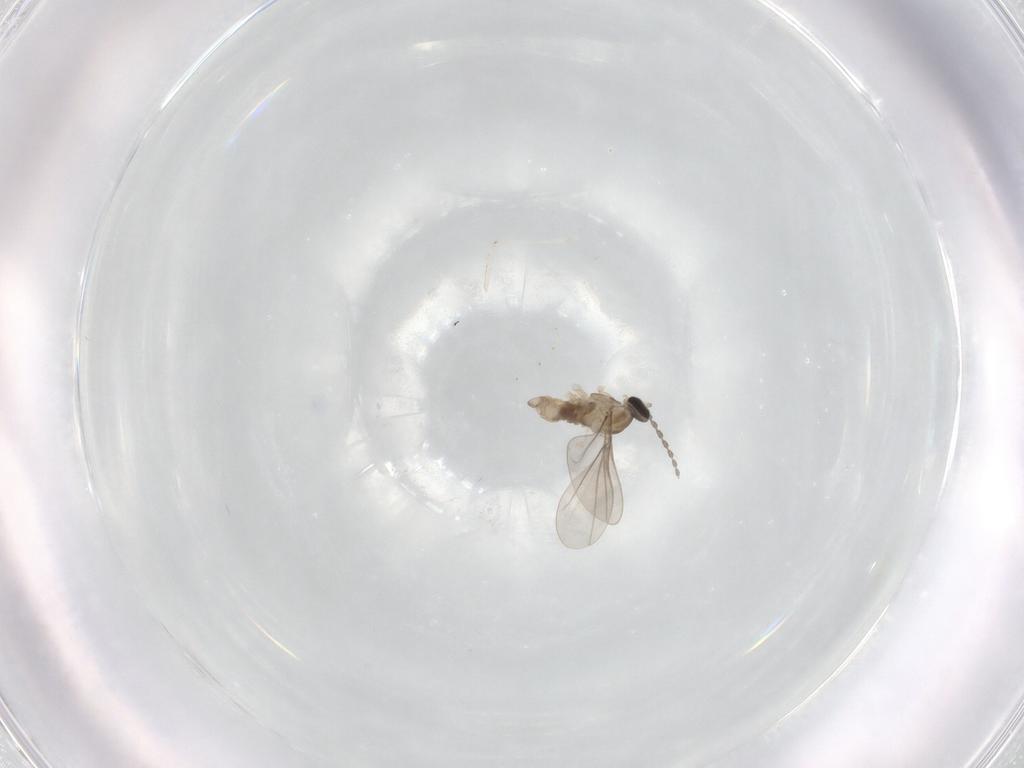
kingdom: Animalia
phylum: Arthropoda
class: Insecta
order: Diptera
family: Cecidomyiidae
